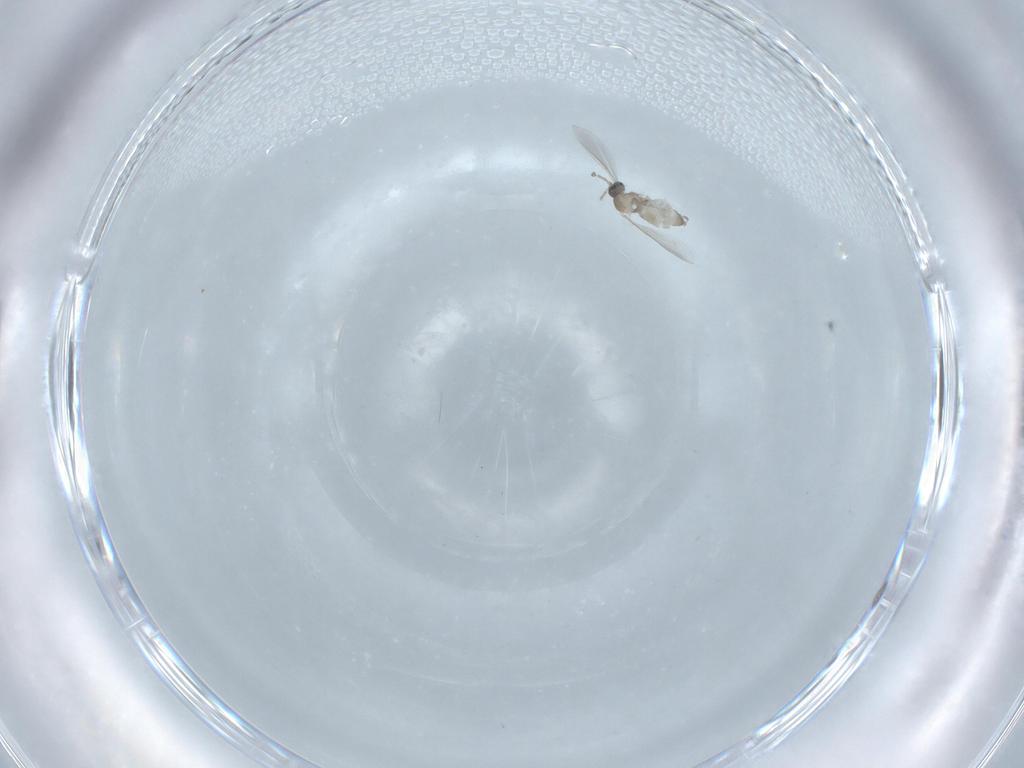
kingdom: Animalia
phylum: Arthropoda
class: Insecta
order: Diptera
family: Cecidomyiidae
